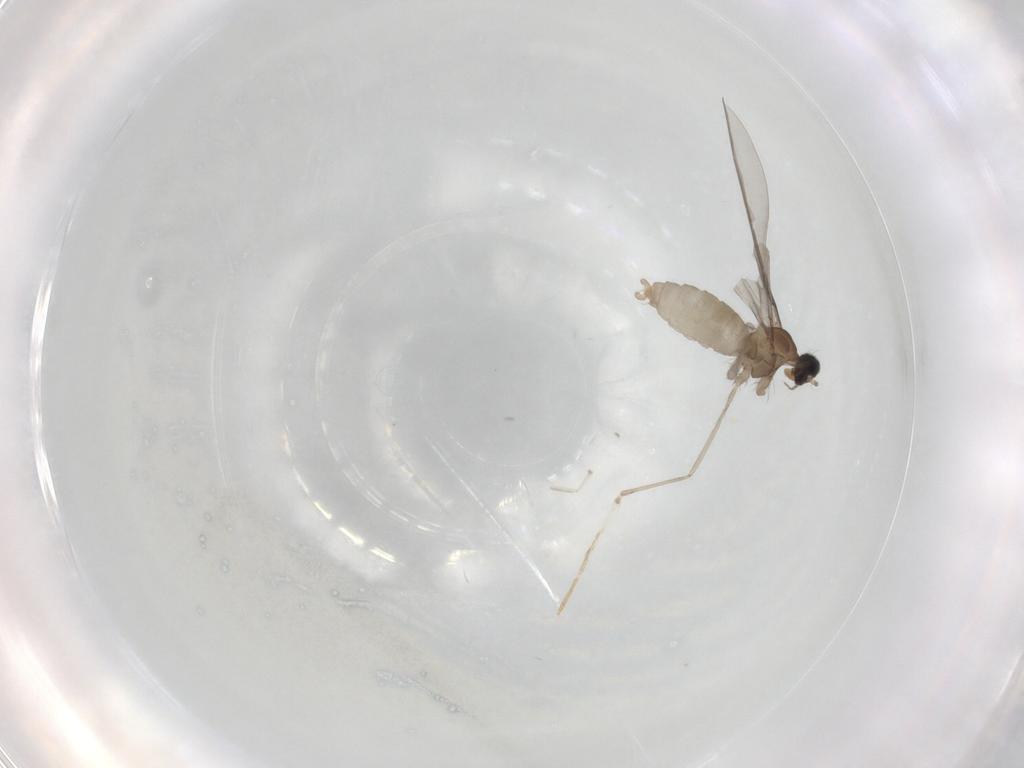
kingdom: Animalia
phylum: Arthropoda
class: Insecta
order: Diptera
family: Cecidomyiidae
